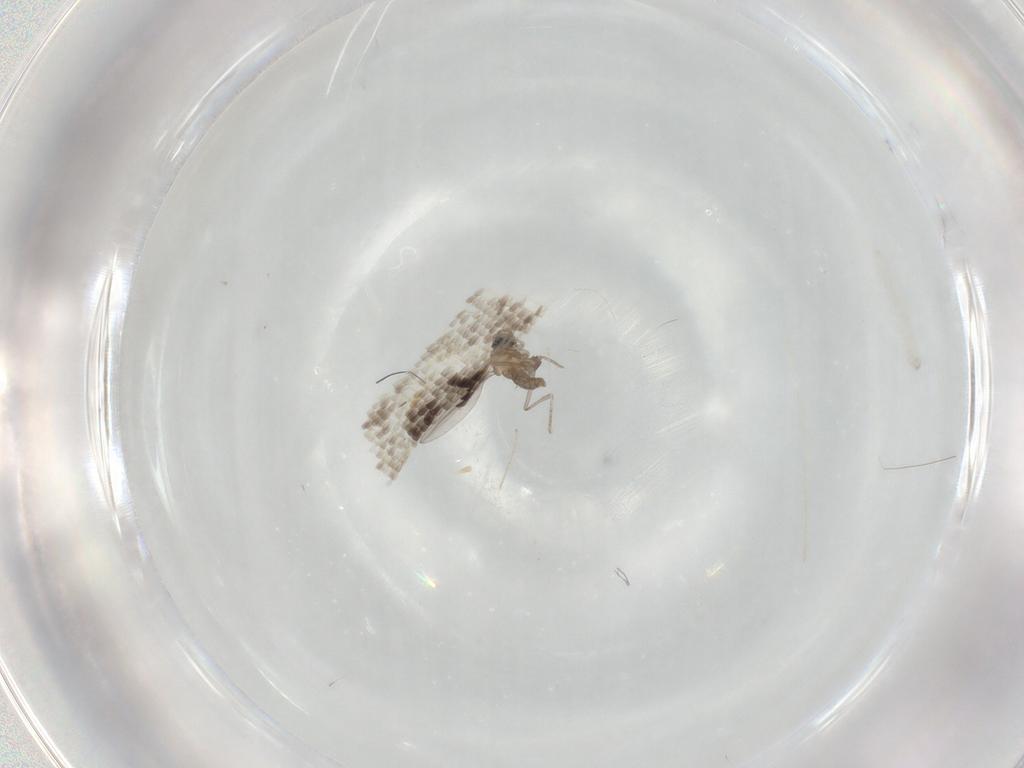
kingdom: Animalia
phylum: Arthropoda
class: Insecta
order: Diptera
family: Cecidomyiidae
